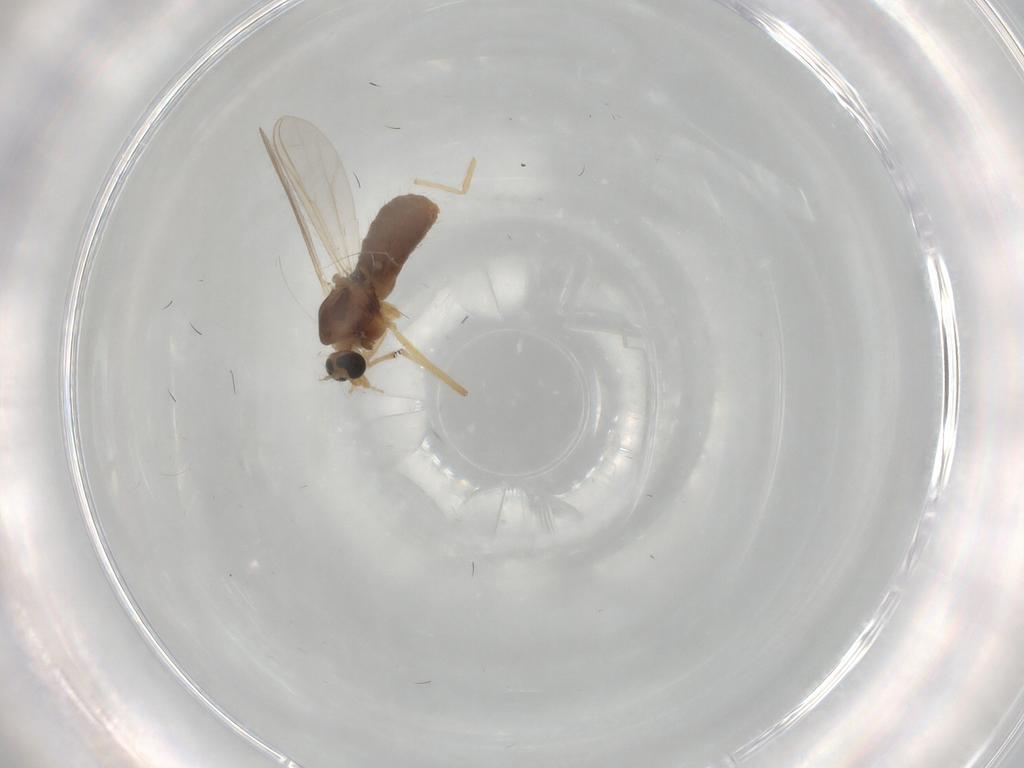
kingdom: Animalia
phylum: Arthropoda
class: Insecta
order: Diptera
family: Chironomidae
